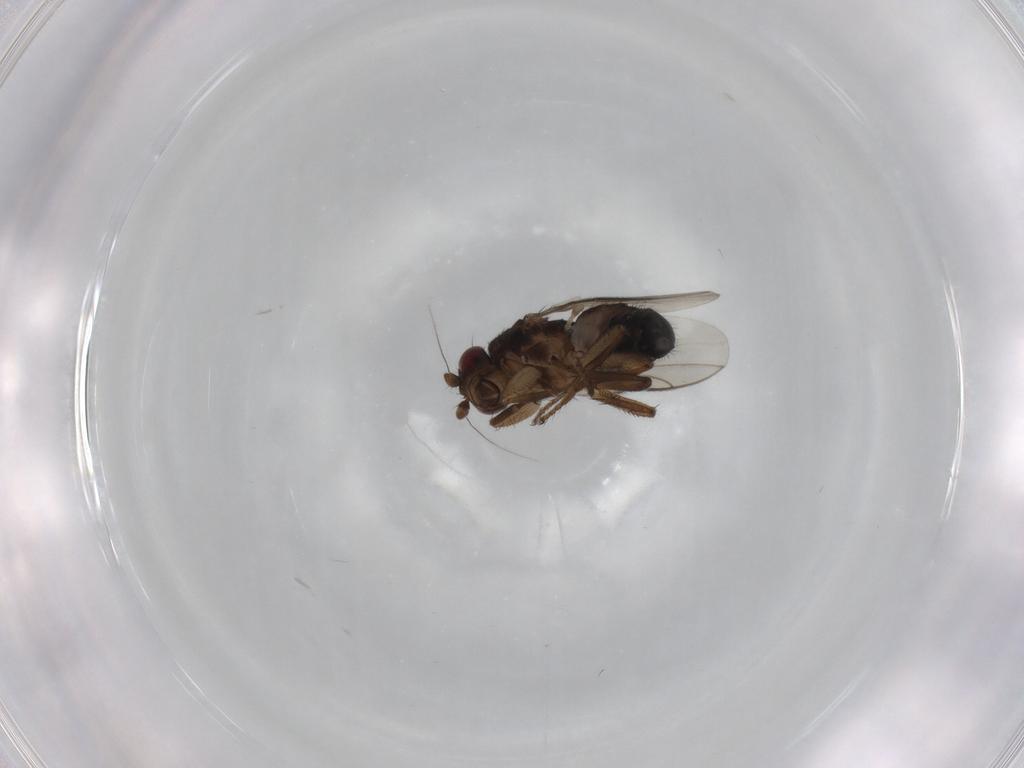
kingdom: Animalia
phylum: Arthropoda
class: Insecta
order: Diptera
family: Sphaeroceridae
